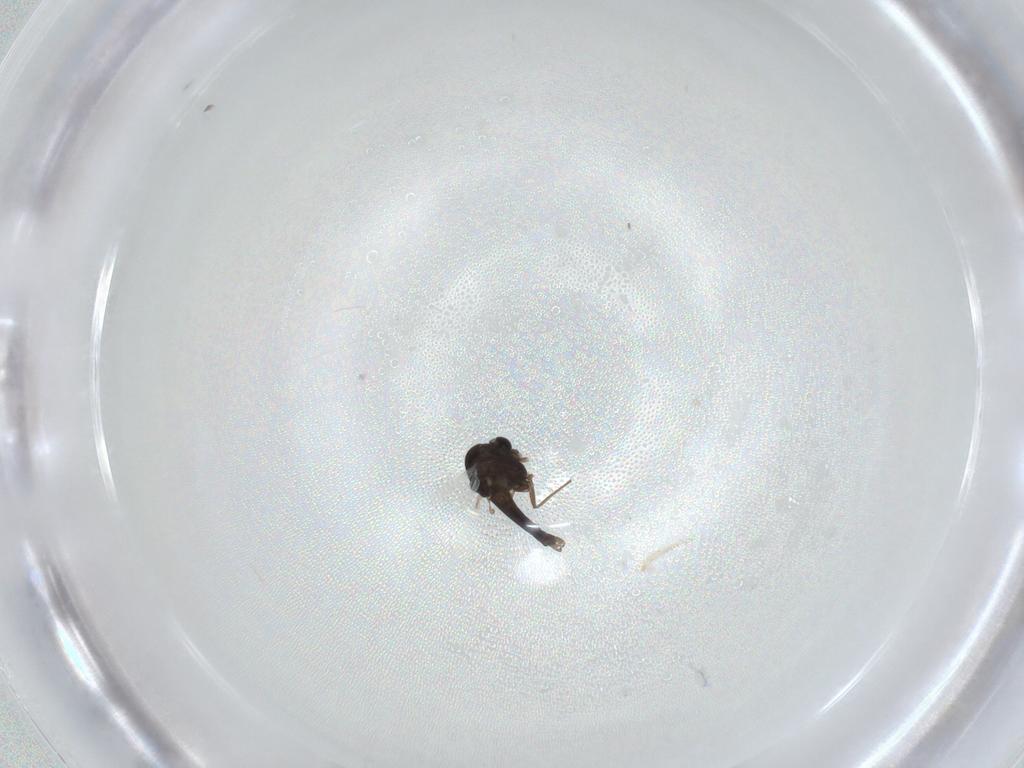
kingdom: Animalia
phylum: Arthropoda
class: Insecta
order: Diptera
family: Chironomidae
